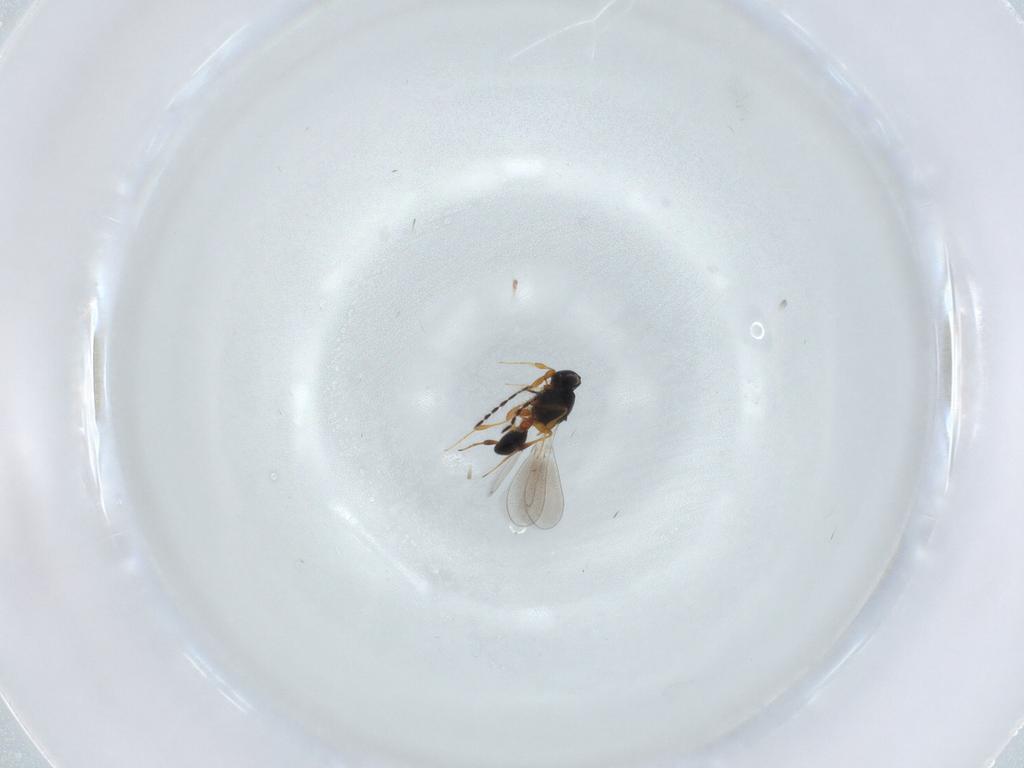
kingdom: Animalia
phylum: Arthropoda
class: Insecta
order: Hymenoptera
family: Platygastridae
